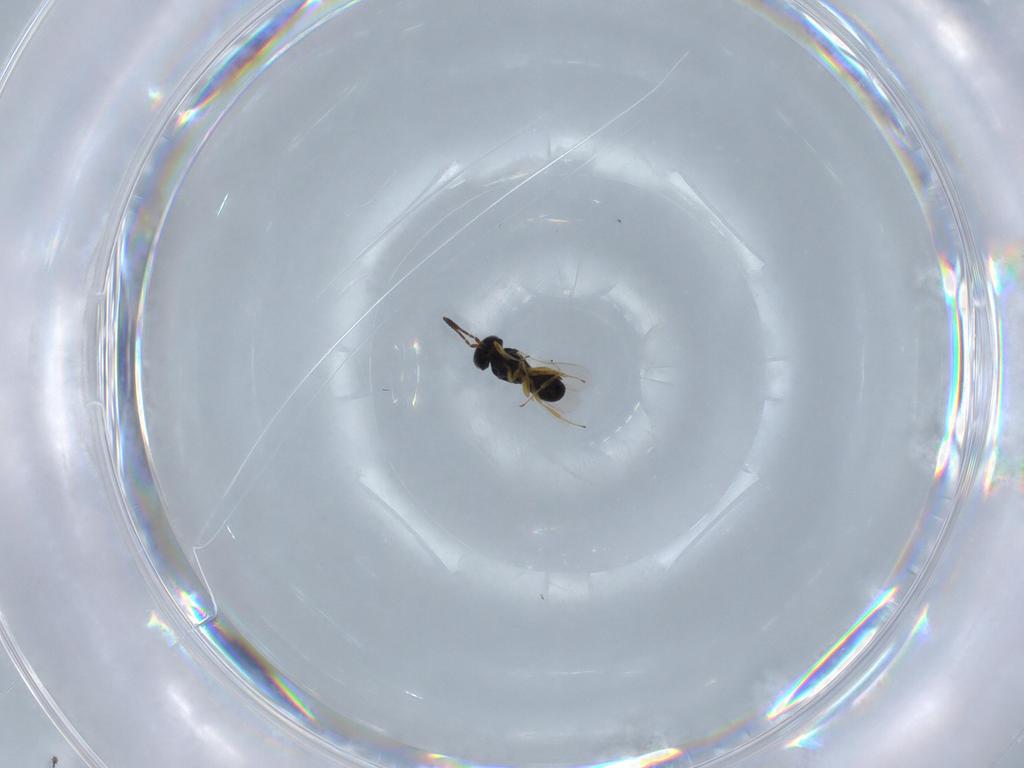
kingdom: Animalia
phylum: Arthropoda
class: Insecta
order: Hymenoptera
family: Scelionidae
